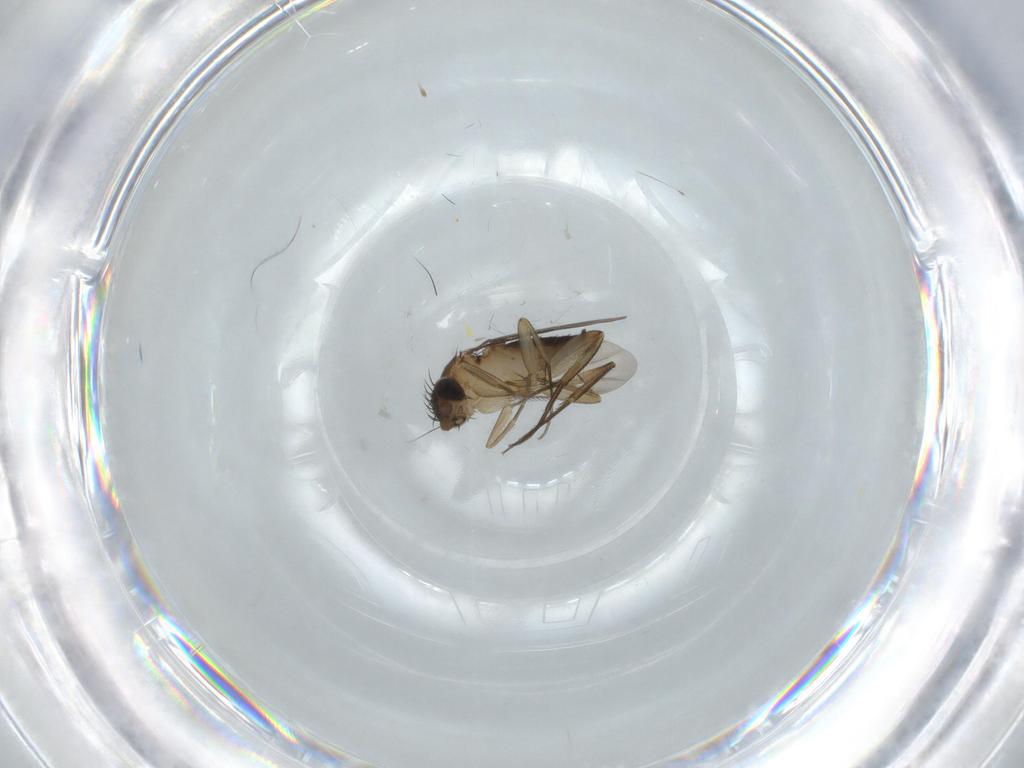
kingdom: Animalia
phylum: Arthropoda
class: Insecta
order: Diptera
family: Phoridae
